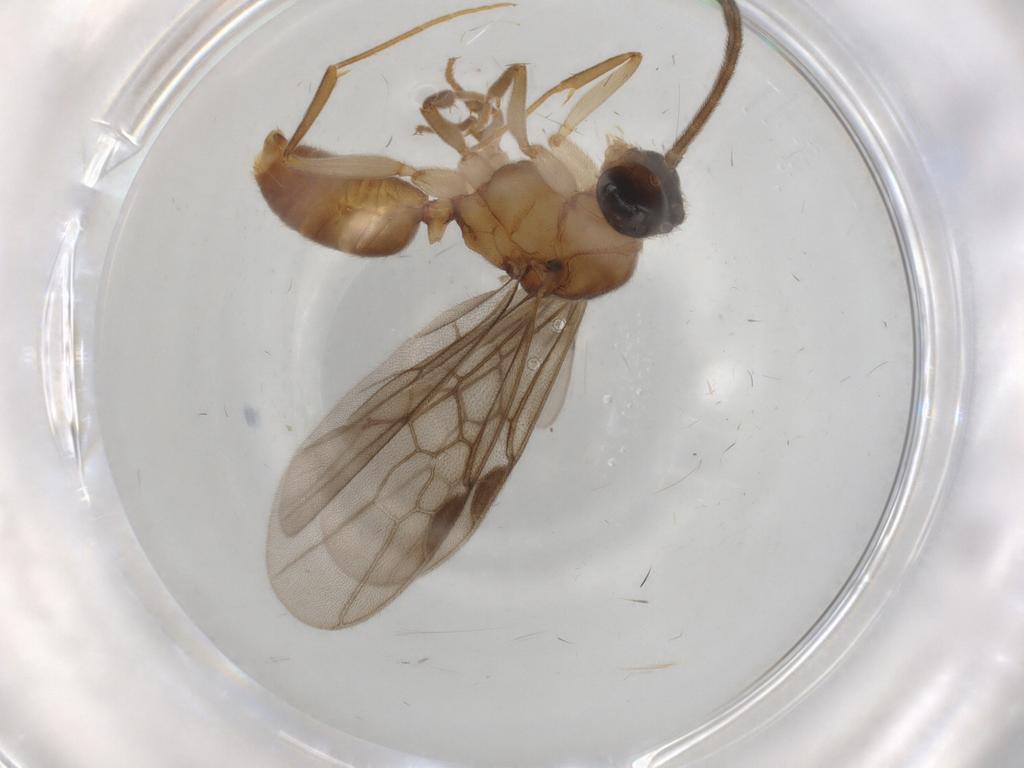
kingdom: Animalia
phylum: Arthropoda
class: Insecta
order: Hymenoptera
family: Formicidae
